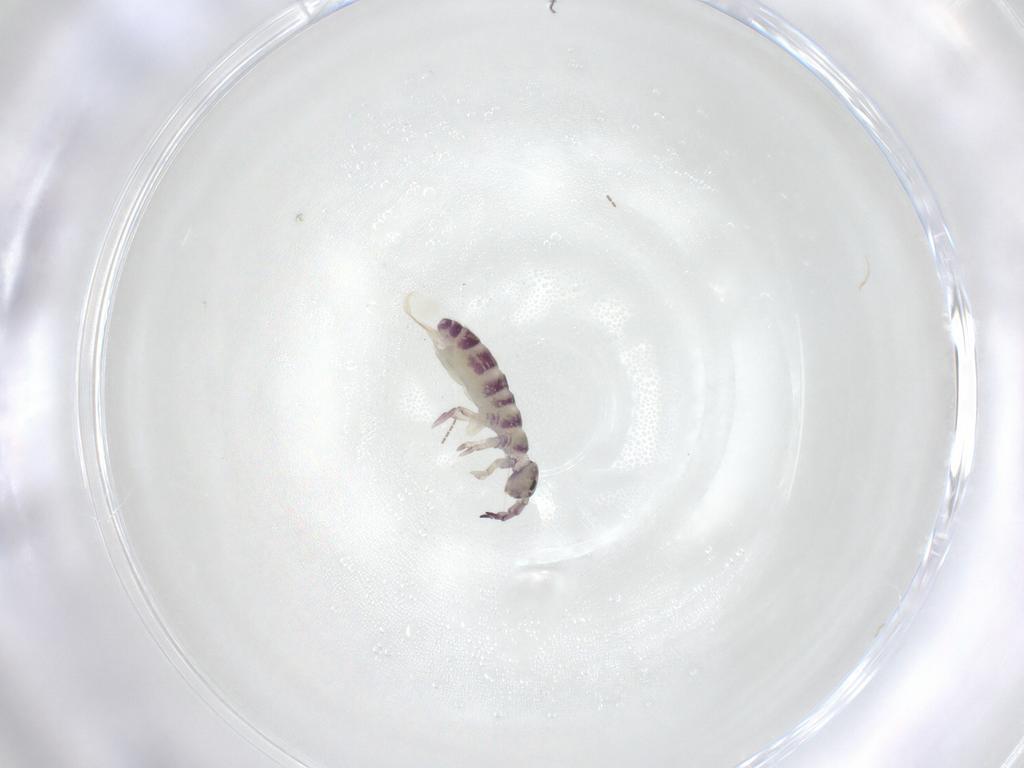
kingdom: Animalia
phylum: Arthropoda
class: Collembola
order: Entomobryomorpha
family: Isotomidae
